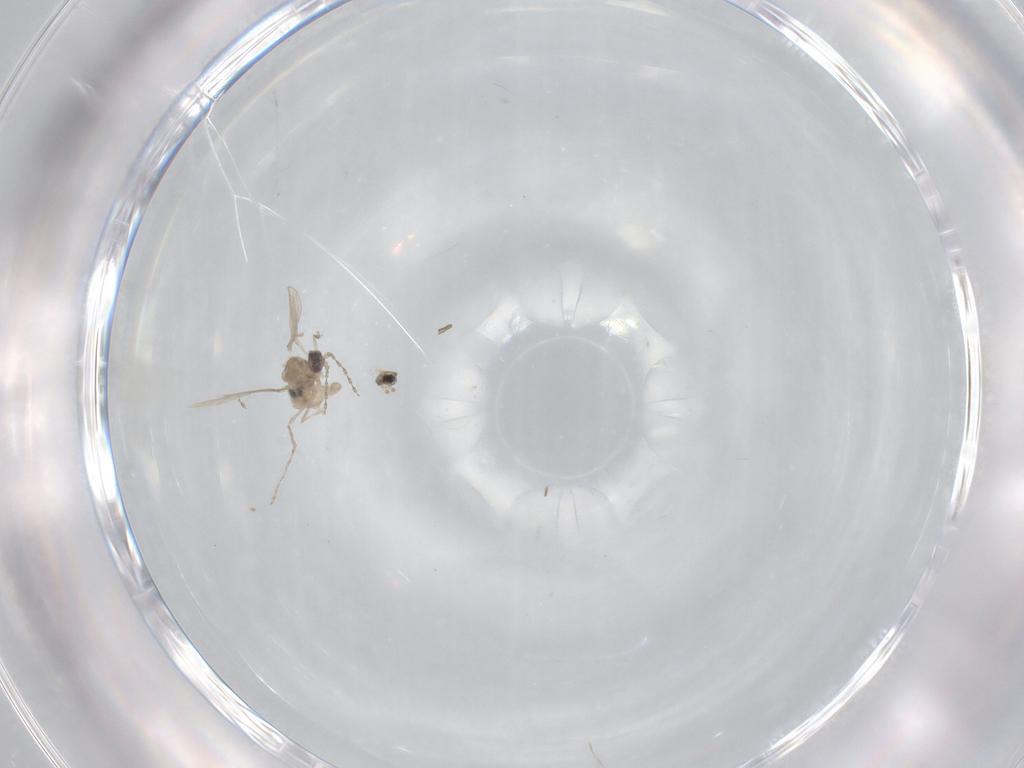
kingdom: Animalia
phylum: Arthropoda
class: Insecta
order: Diptera
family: Cecidomyiidae
